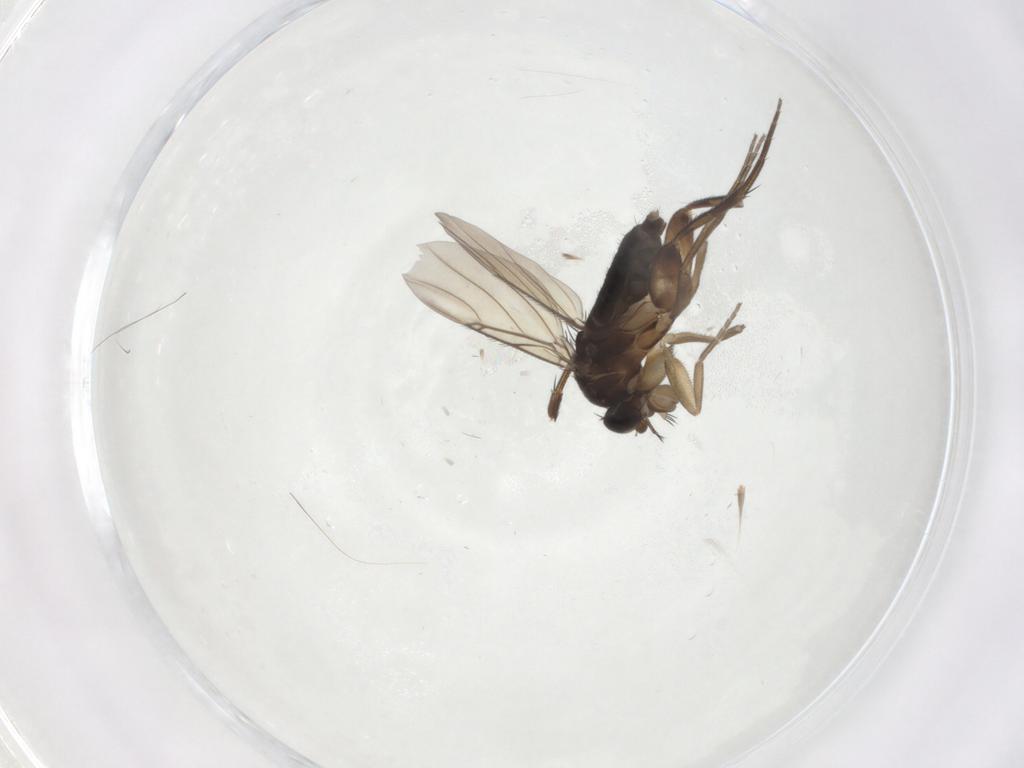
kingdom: Animalia
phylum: Arthropoda
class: Insecta
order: Diptera
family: Phoridae
